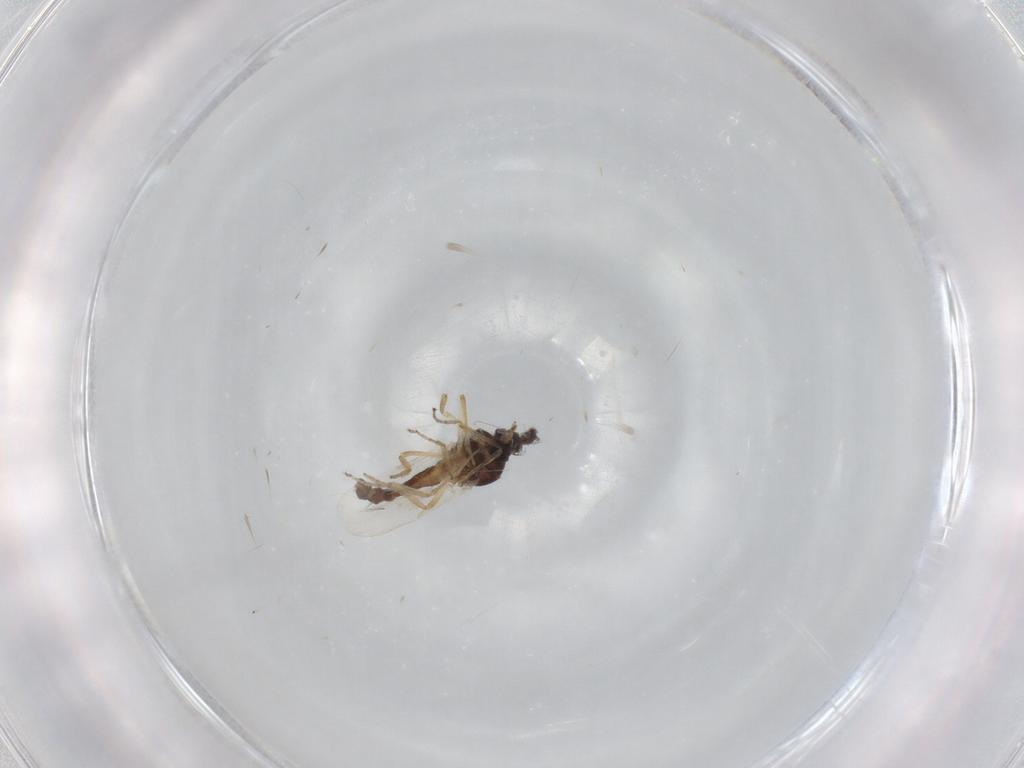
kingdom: Animalia
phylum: Arthropoda
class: Insecta
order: Diptera
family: Ceratopogonidae
